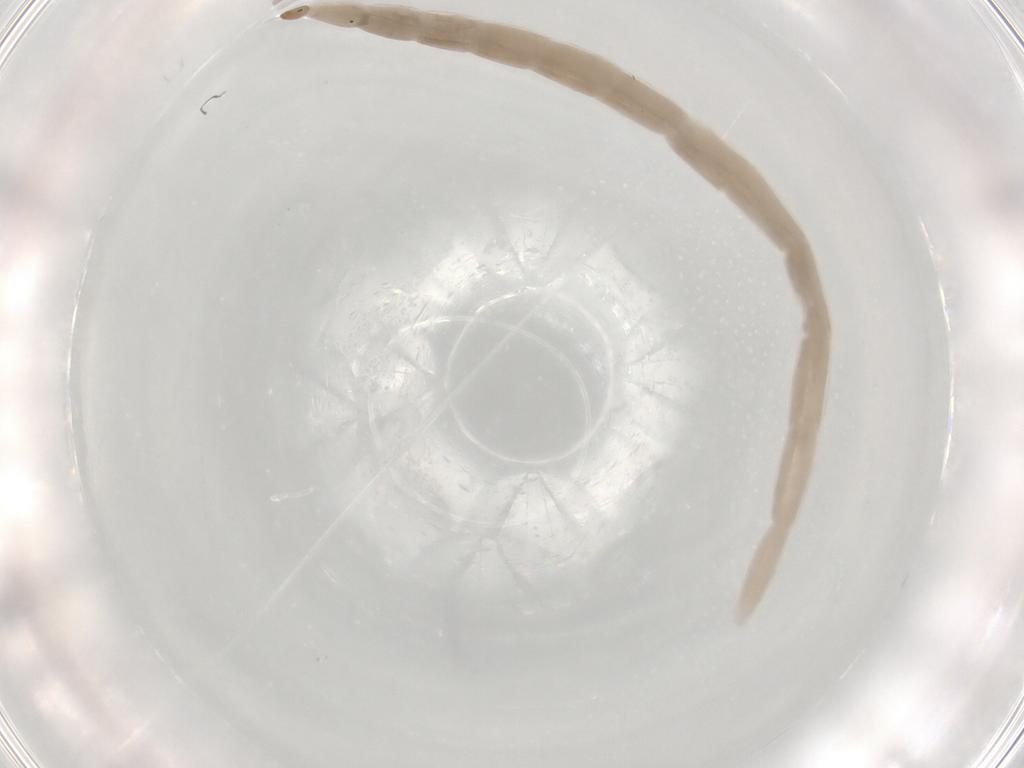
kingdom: Animalia
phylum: Arthropoda
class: Insecta
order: Diptera
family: Ceratopogonidae
